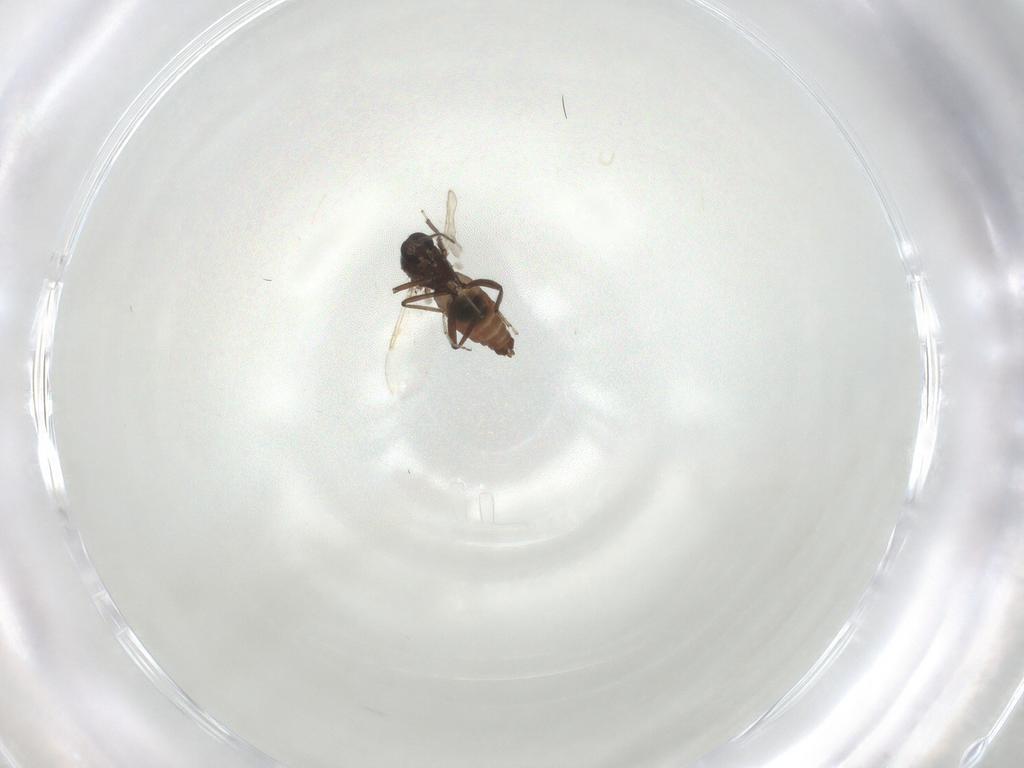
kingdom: Animalia
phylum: Arthropoda
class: Insecta
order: Diptera
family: Ceratopogonidae
